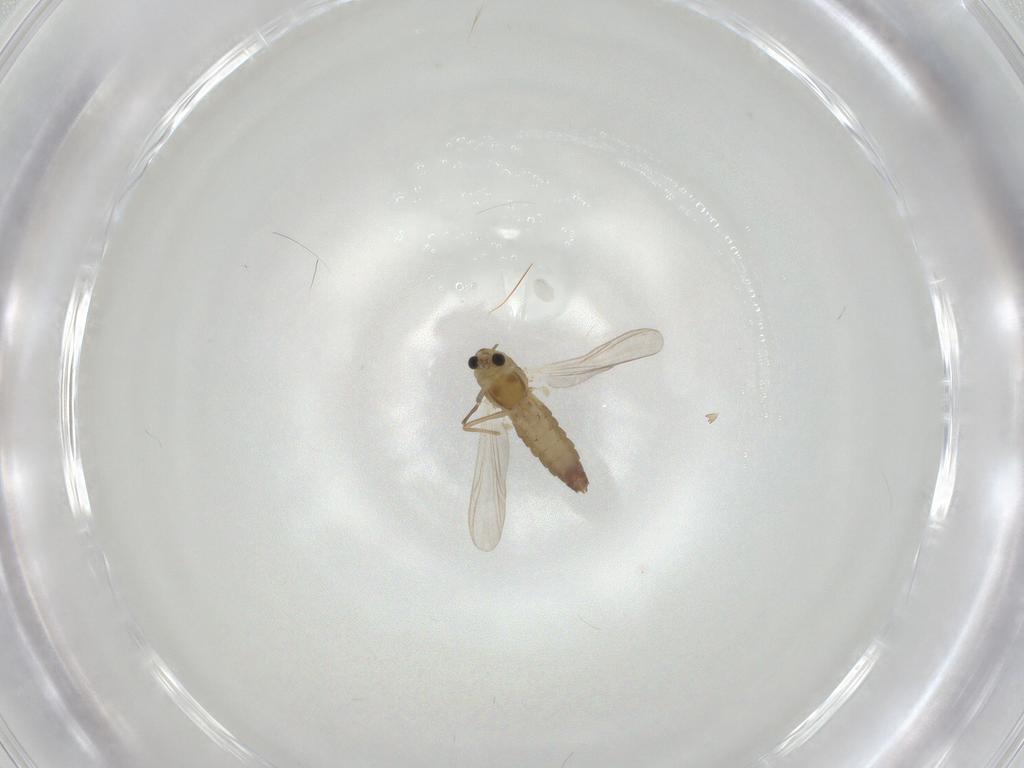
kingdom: Animalia
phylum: Arthropoda
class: Insecta
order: Diptera
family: Chironomidae
